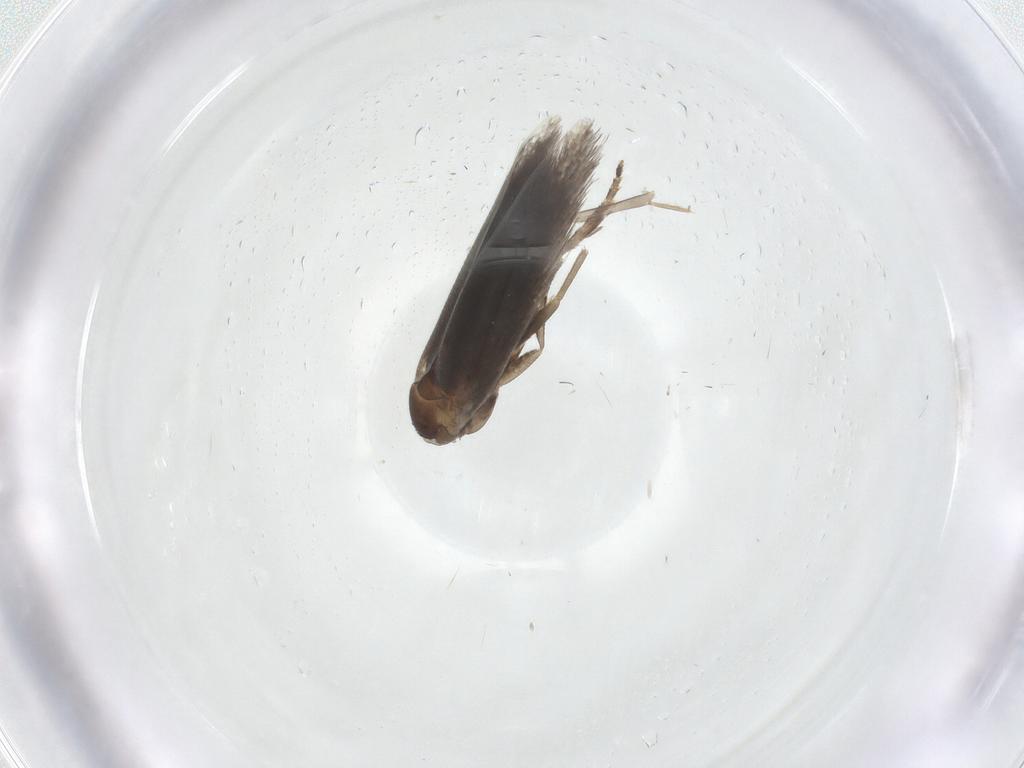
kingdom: Animalia
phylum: Arthropoda
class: Insecta
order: Lepidoptera
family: Elachistidae
